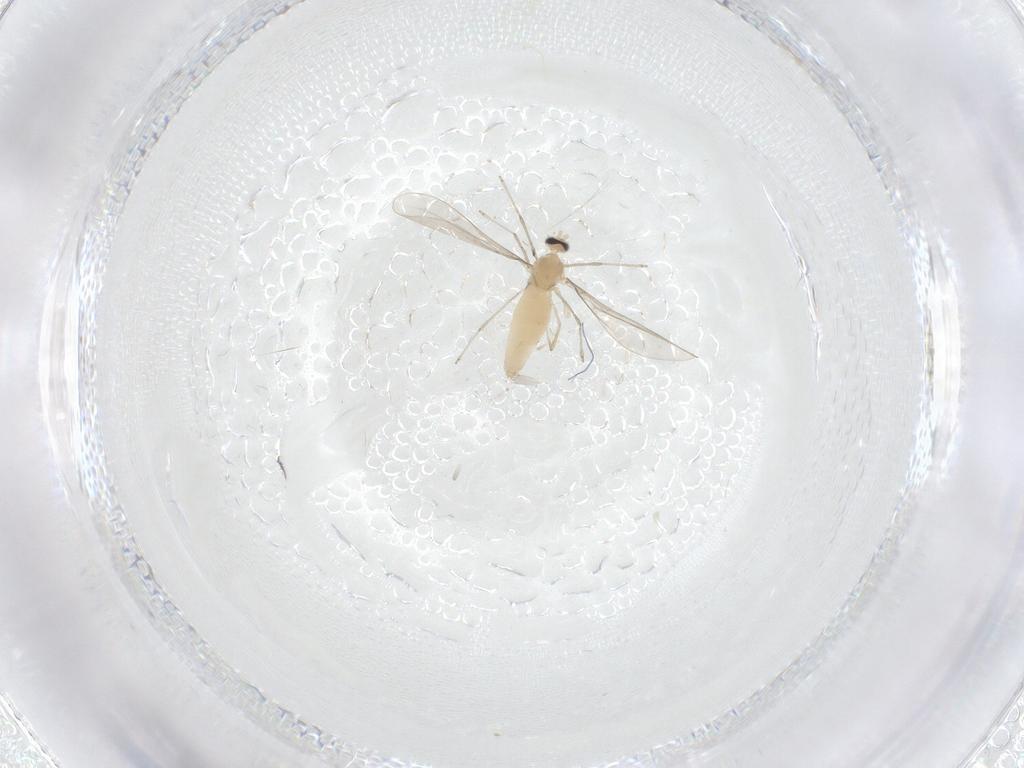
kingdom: Animalia
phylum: Arthropoda
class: Insecta
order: Diptera
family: Cecidomyiidae
